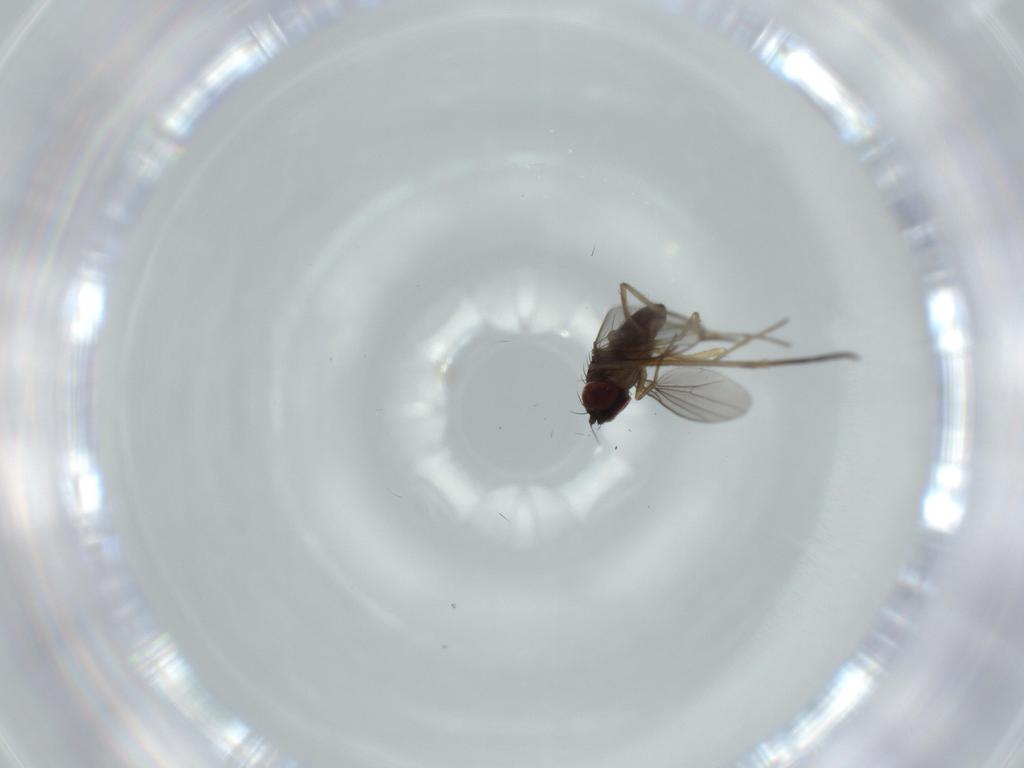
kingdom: Animalia
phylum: Arthropoda
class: Insecta
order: Diptera
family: Dolichopodidae
